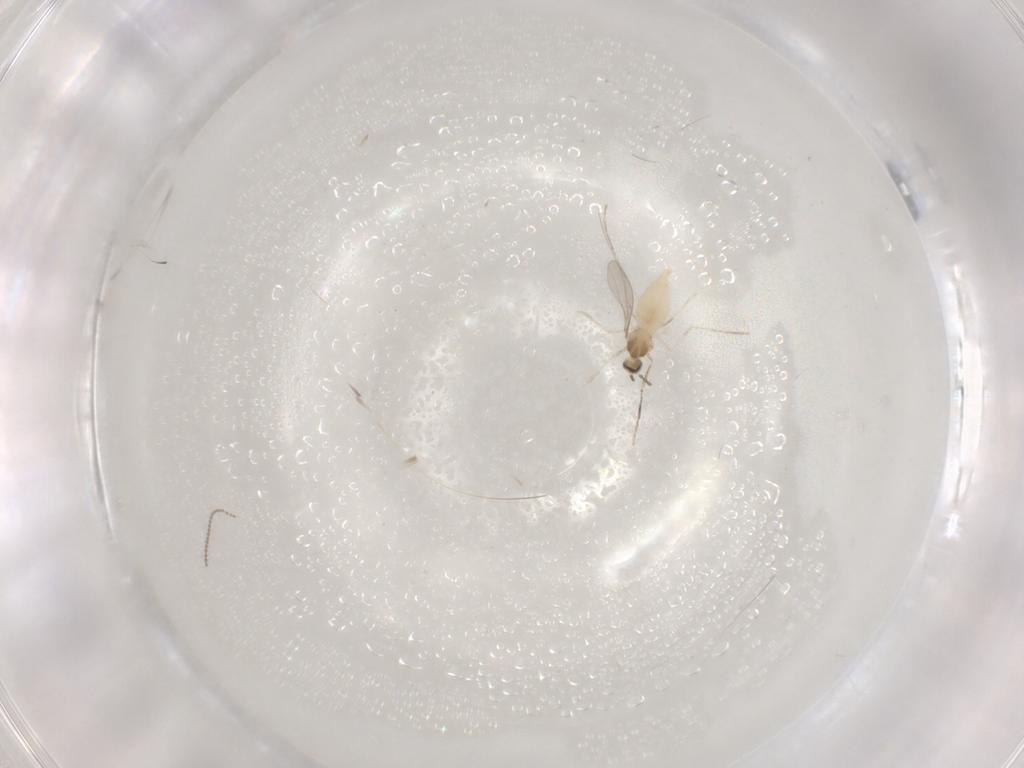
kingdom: Animalia
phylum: Arthropoda
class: Insecta
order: Diptera
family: Cecidomyiidae
